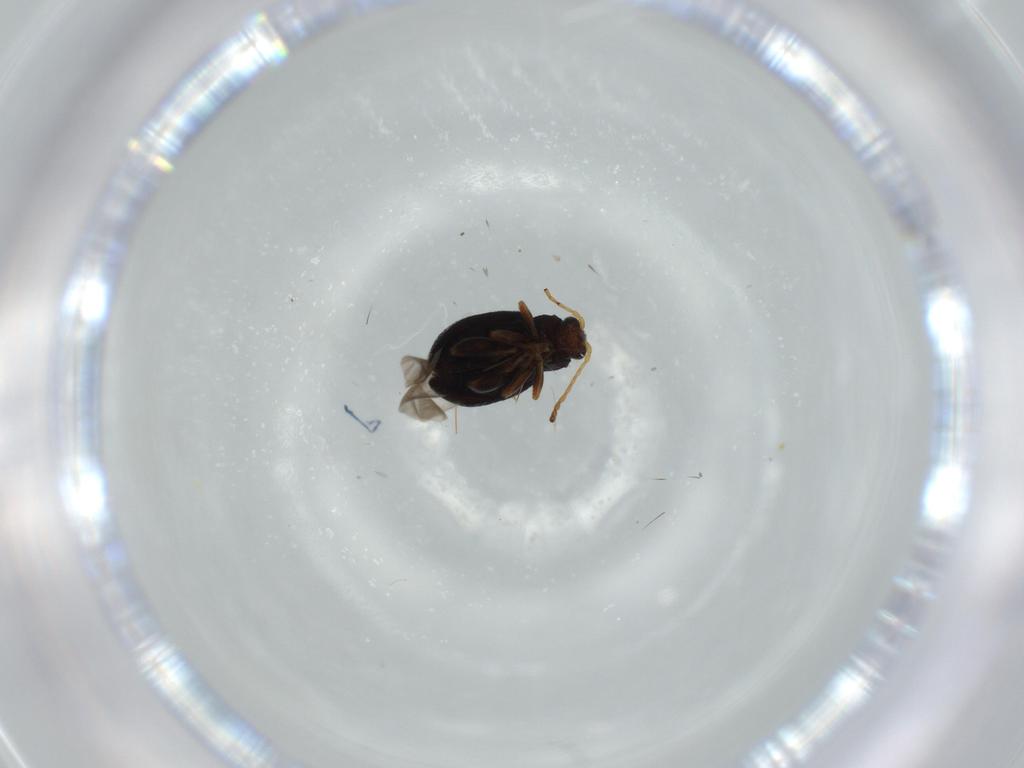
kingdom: Animalia
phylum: Arthropoda
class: Insecta
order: Coleoptera
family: Chrysomelidae
